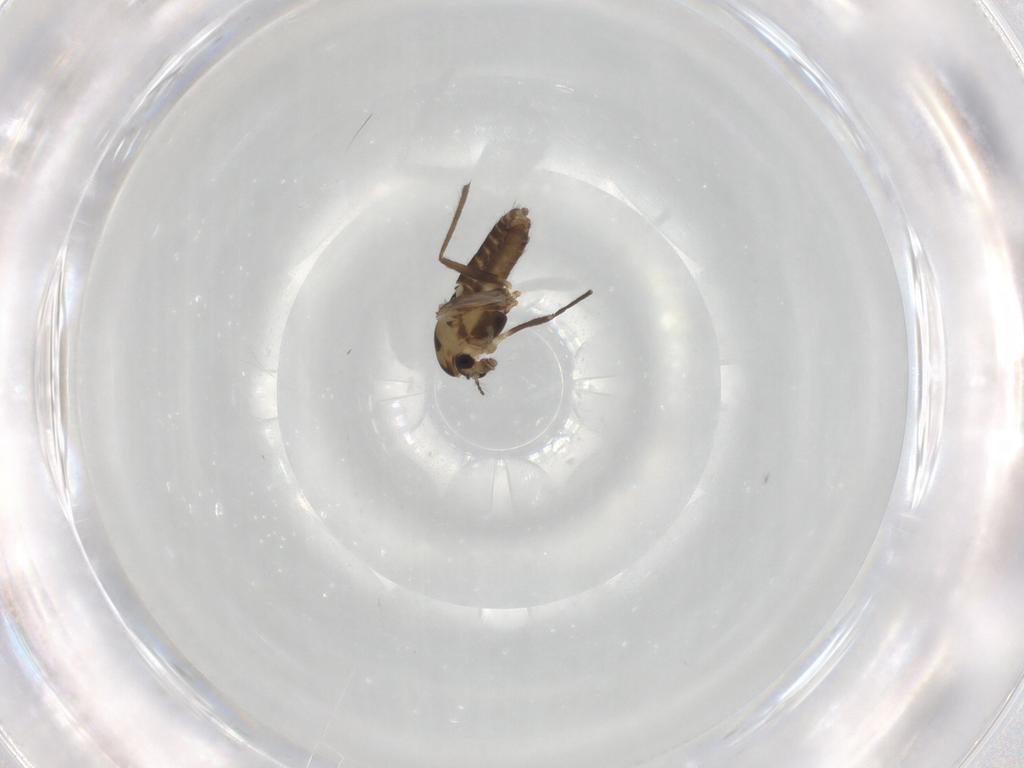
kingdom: Animalia
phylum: Arthropoda
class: Insecta
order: Diptera
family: Chironomidae
